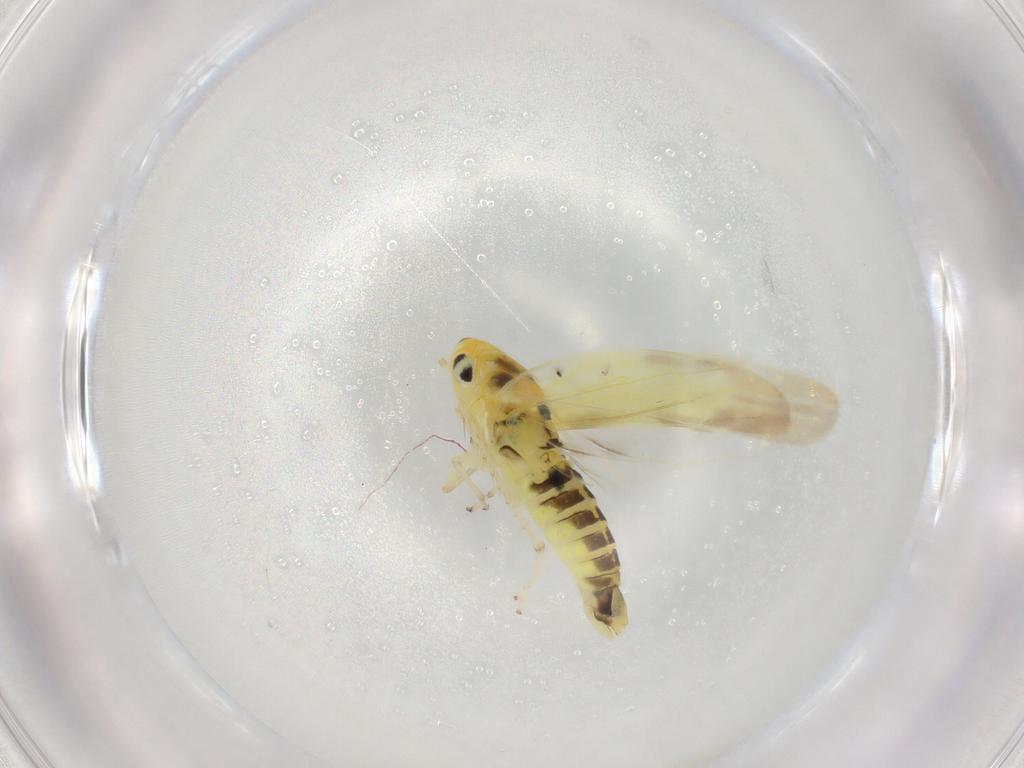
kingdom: Animalia
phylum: Arthropoda
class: Insecta
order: Hemiptera
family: Cicadellidae
